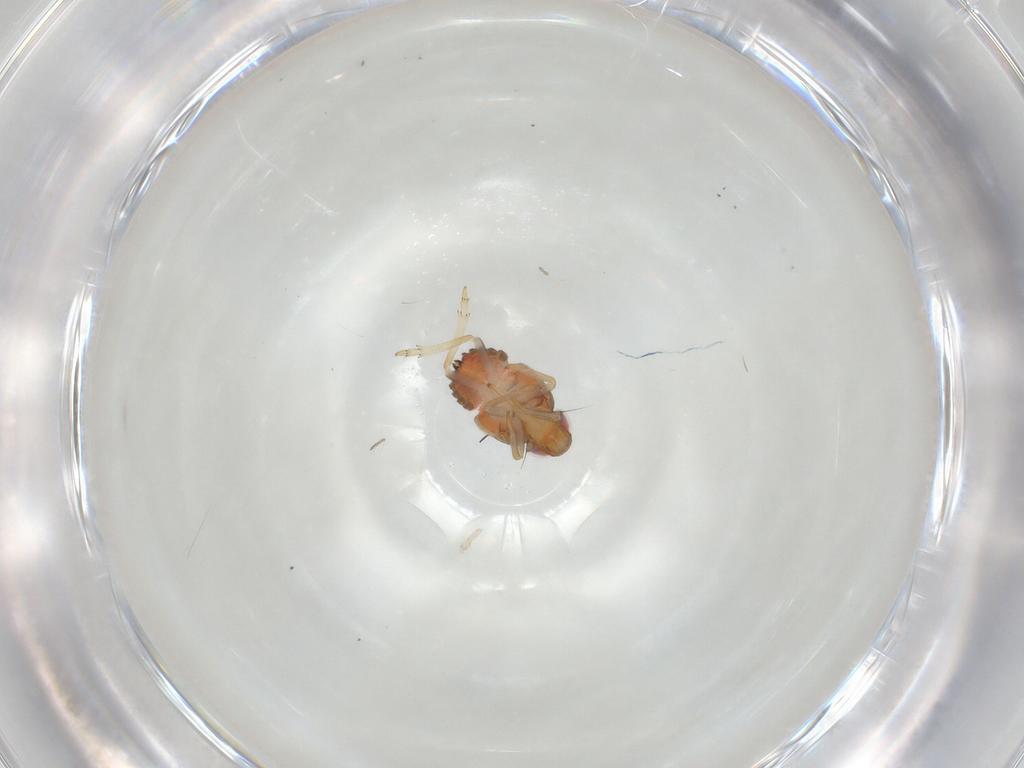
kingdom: Animalia
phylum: Arthropoda
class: Insecta
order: Hemiptera
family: Issidae
